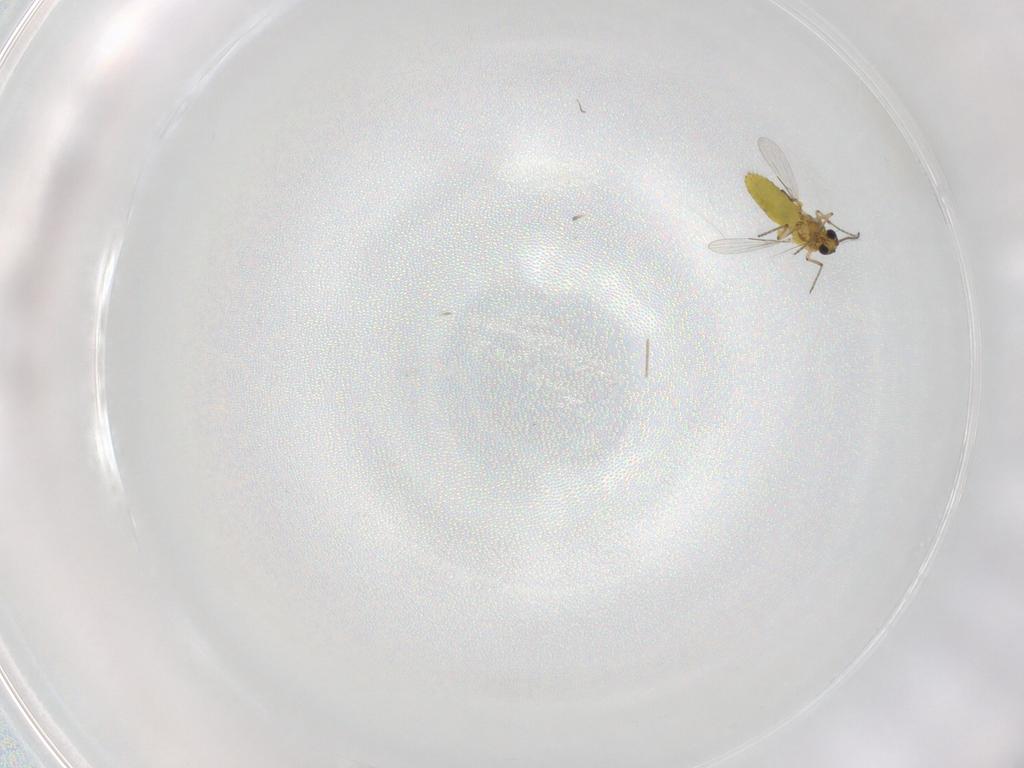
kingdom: Animalia
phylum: Arthropoda
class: Insecta
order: Diptera
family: Ceratopogonidae
